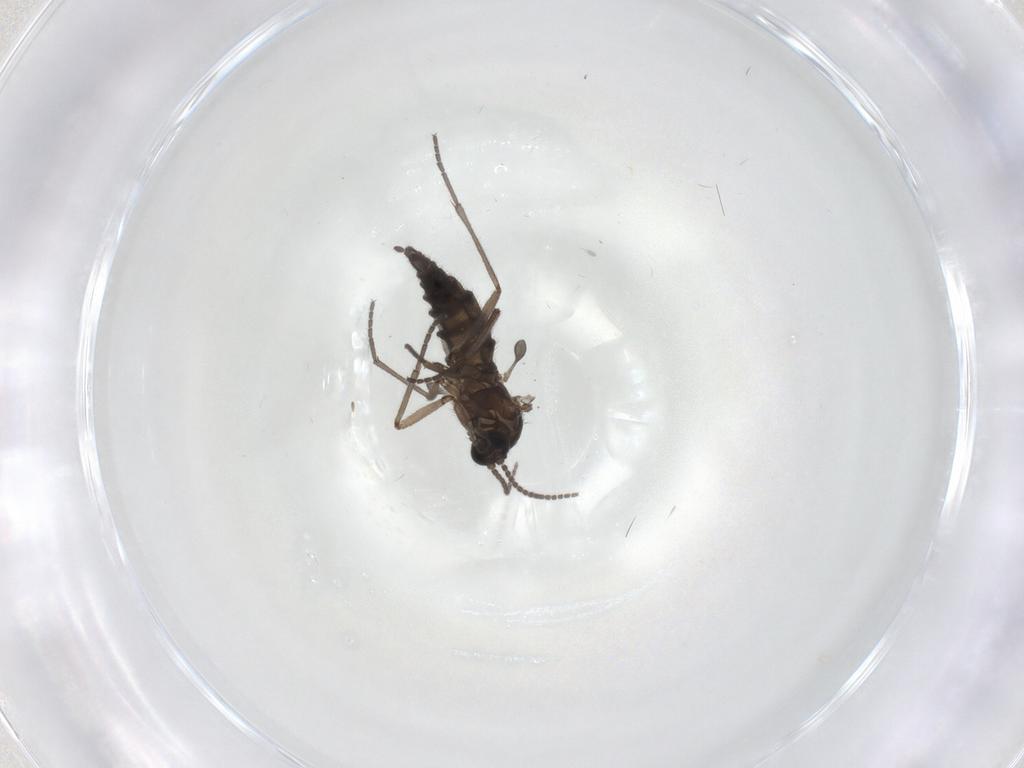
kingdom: Animalia
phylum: Arthropoda
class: Insecta
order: Diptera
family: Sciaridae
